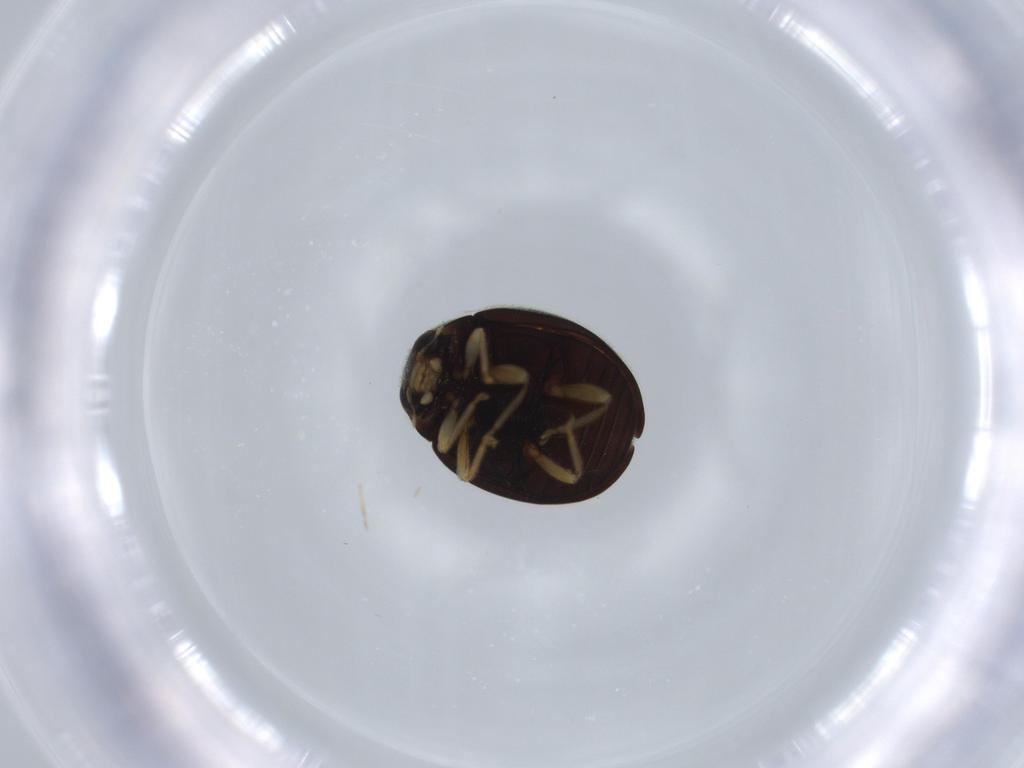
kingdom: Animalia
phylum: Arthropoda
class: Insecta
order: Coleoptera
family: Coccinellidae
